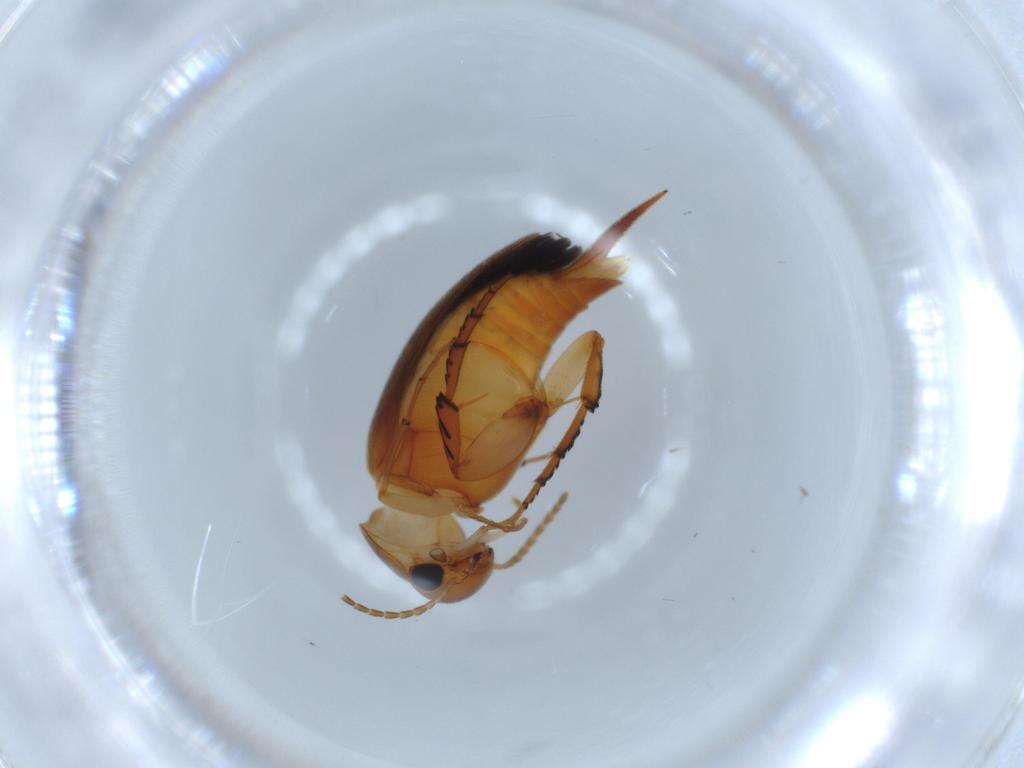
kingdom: Animalia
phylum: Arthropoda
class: Insecta
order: Coleoptera
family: Mordellidae
